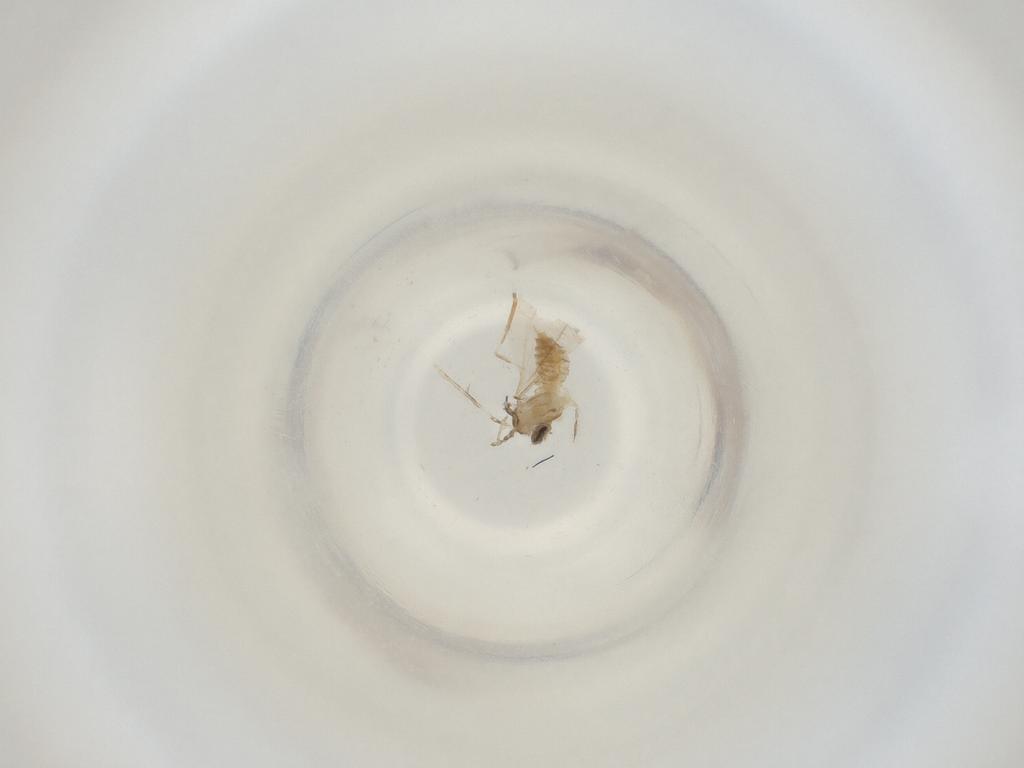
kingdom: Animalia
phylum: Arthropoda
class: Insecta
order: Diptera
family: Cecidomyiidae
